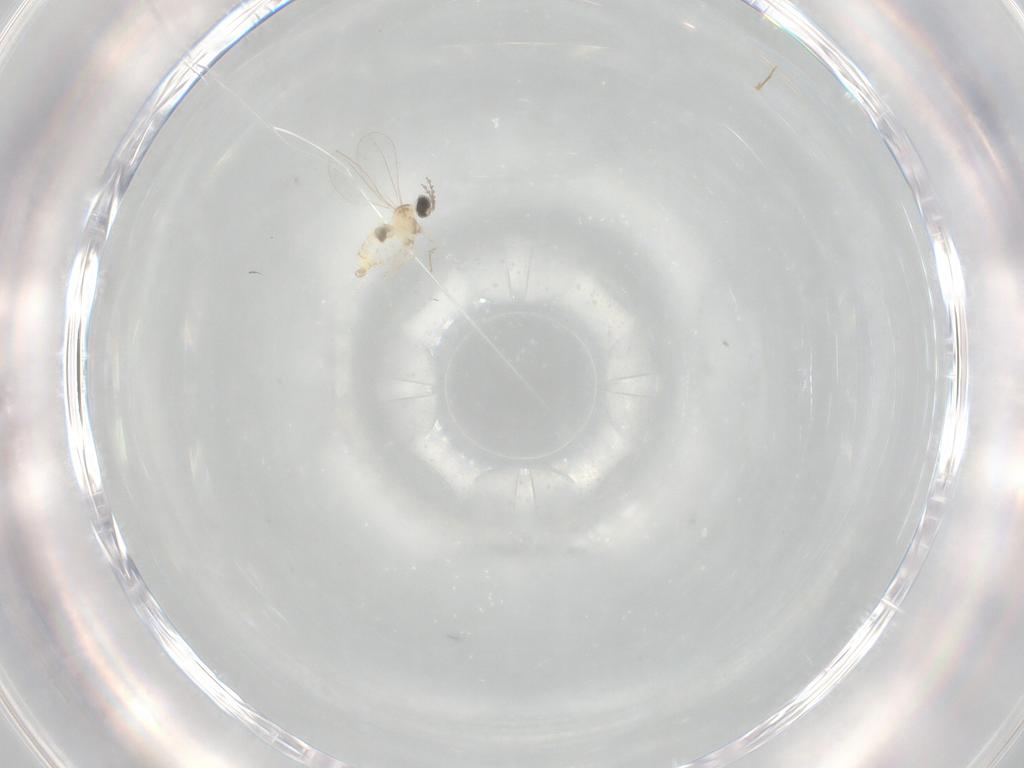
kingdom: Animalia
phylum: Arthropoda
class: Insecta
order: Diptera
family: Cecidomyiidae
